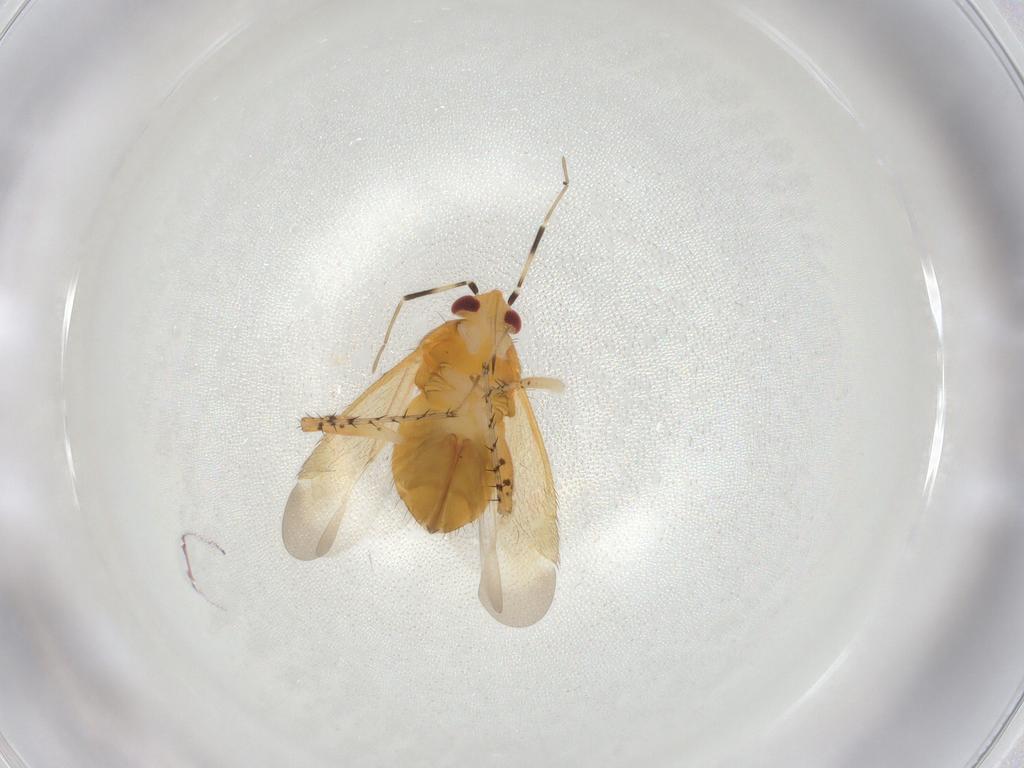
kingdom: Animalia
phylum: Arthropoda
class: Insecta
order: Hemiptera
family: Miridae
